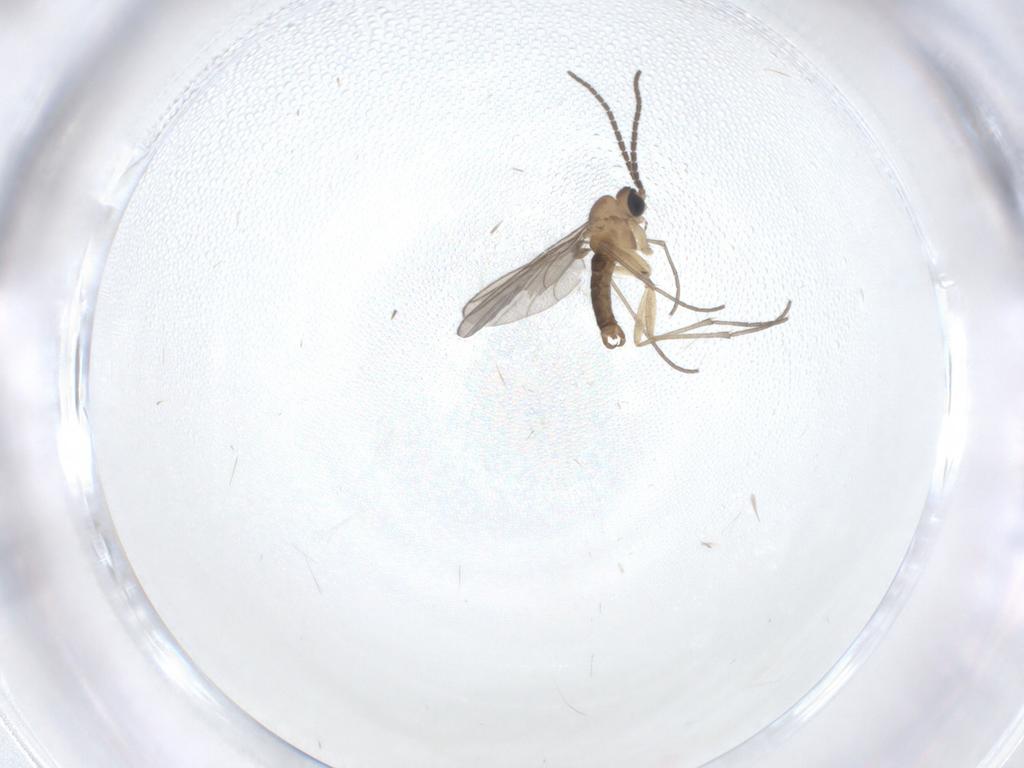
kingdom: Animalia
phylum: Arthropoda
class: Insecta
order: Diptera
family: Sciaridae
